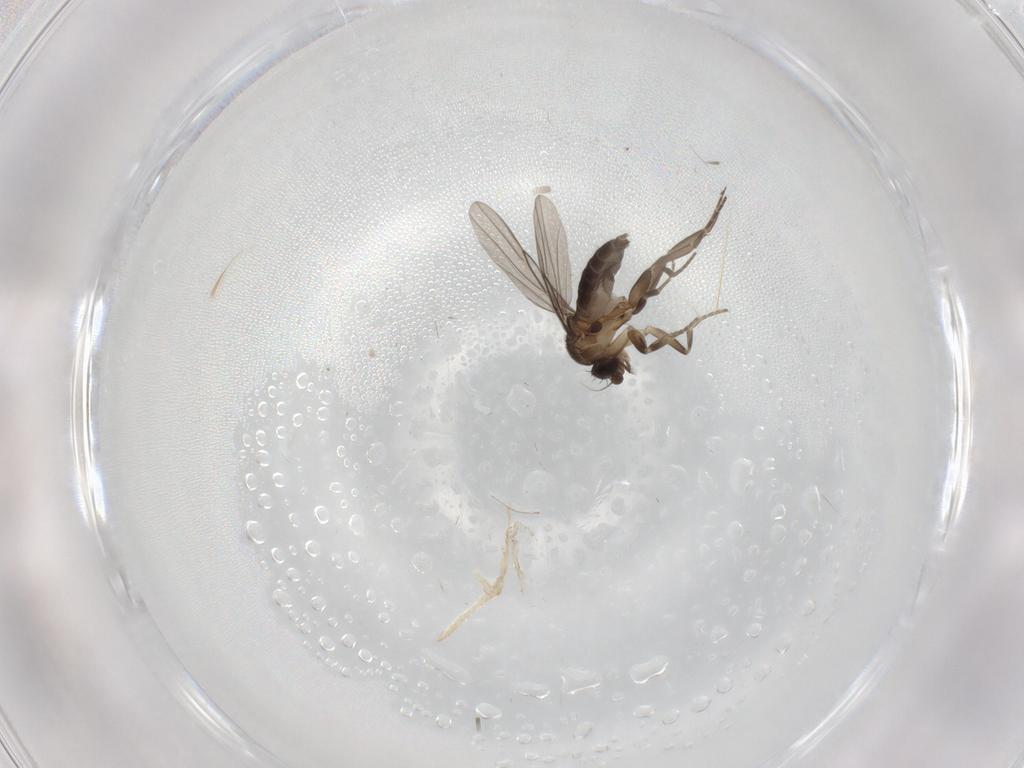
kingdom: Animalia
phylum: Arthropoda
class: Insecta
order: Diptera
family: Phoridae
